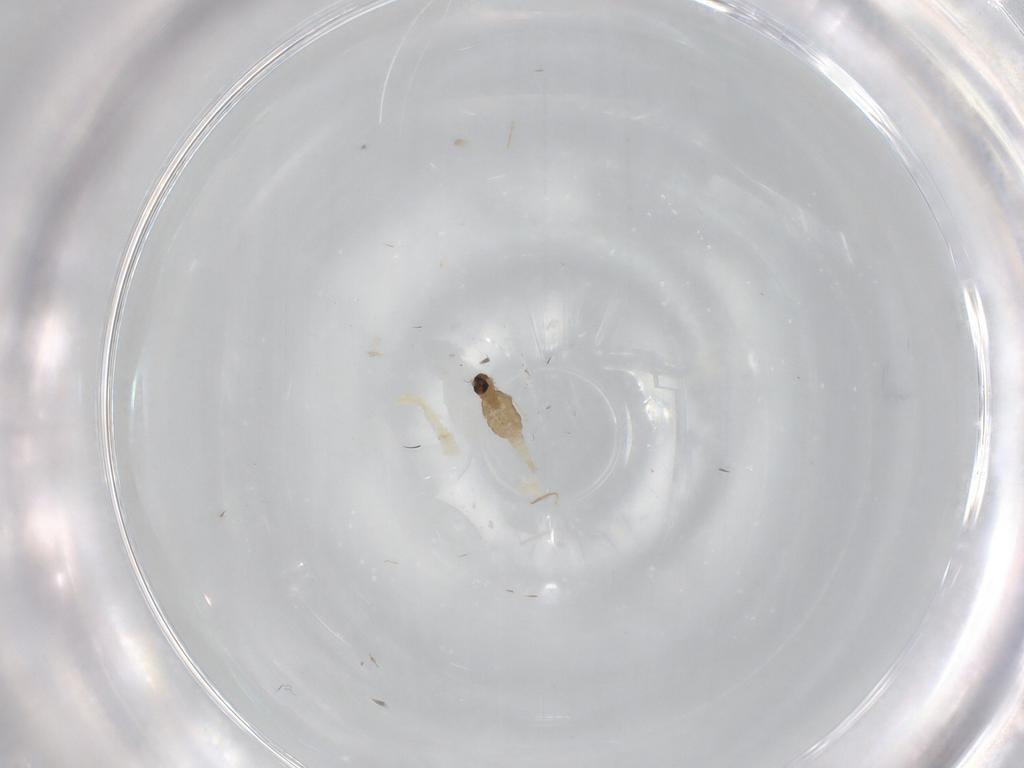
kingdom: Animalia
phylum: Arthropoda
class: Insecta
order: Diptera
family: Cecidomyiidae
